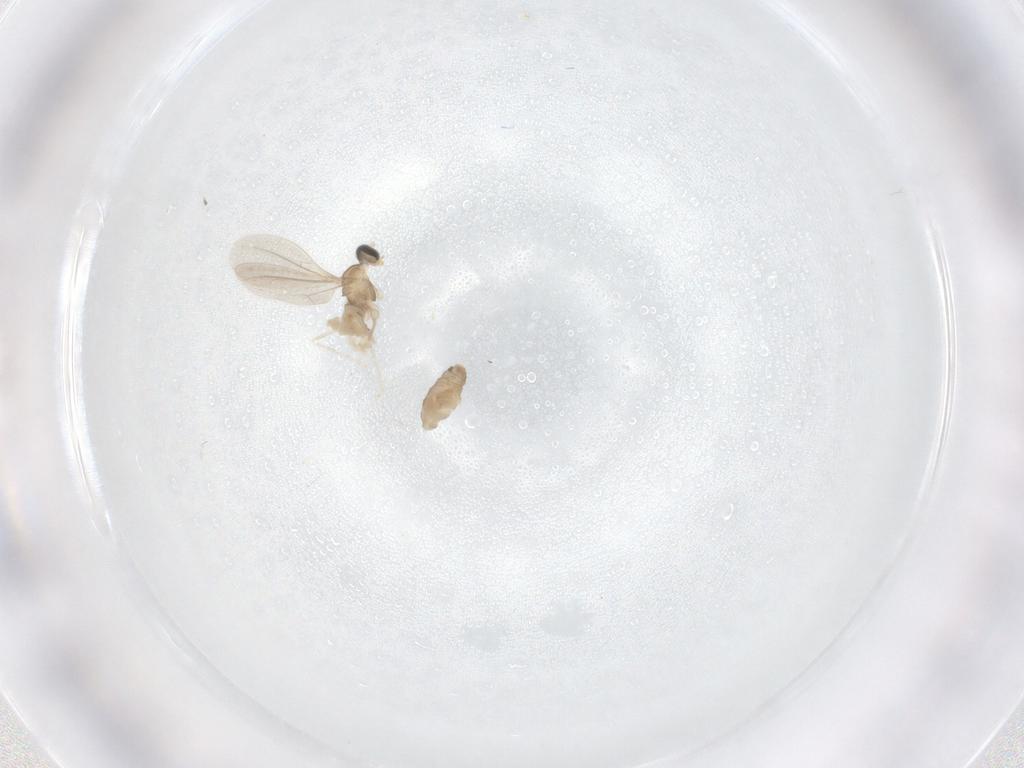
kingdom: Animalia
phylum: Arthropoda
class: Insecta
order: Diptera
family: Cecidomyiidae
